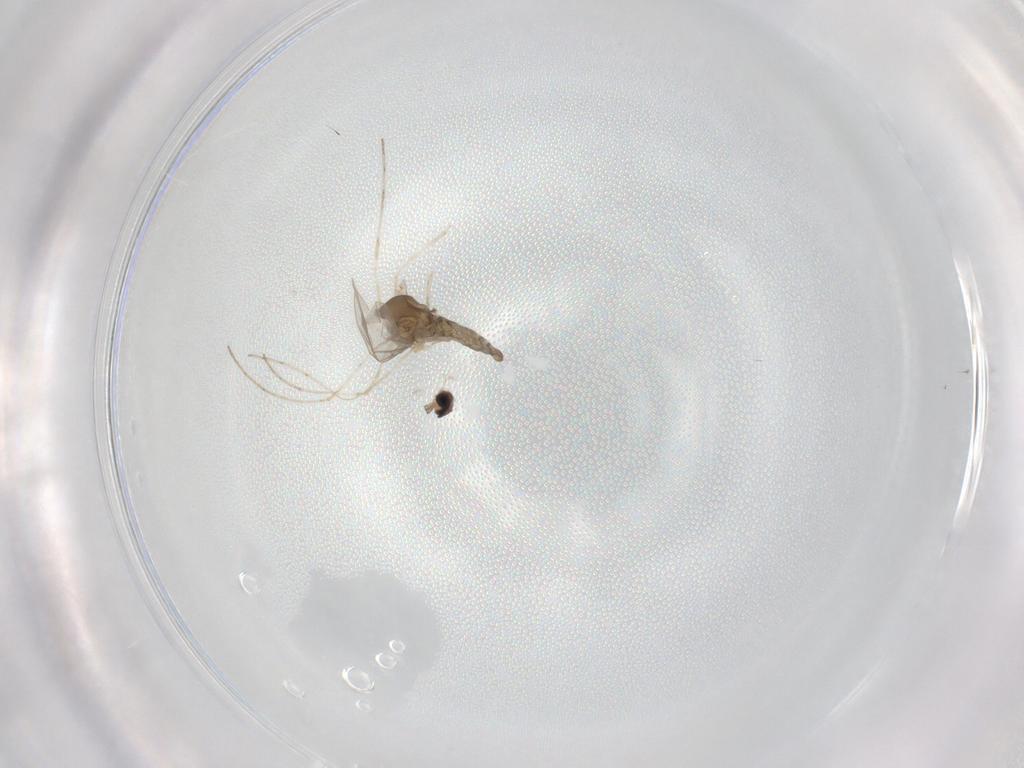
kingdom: Animalia
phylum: Arthropoda
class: Insecta
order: Diptera
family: Cecidomyiidae
